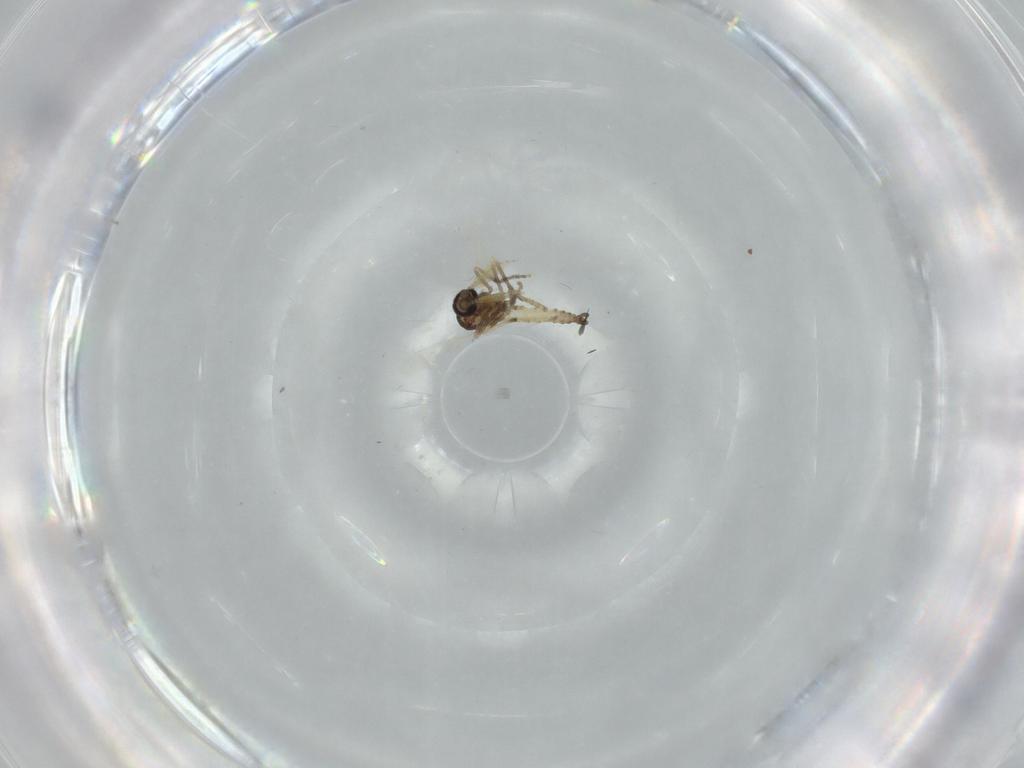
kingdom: Animalia
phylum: Arthropoda
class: Insecta
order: Diptera
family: Ceratopogonidae
